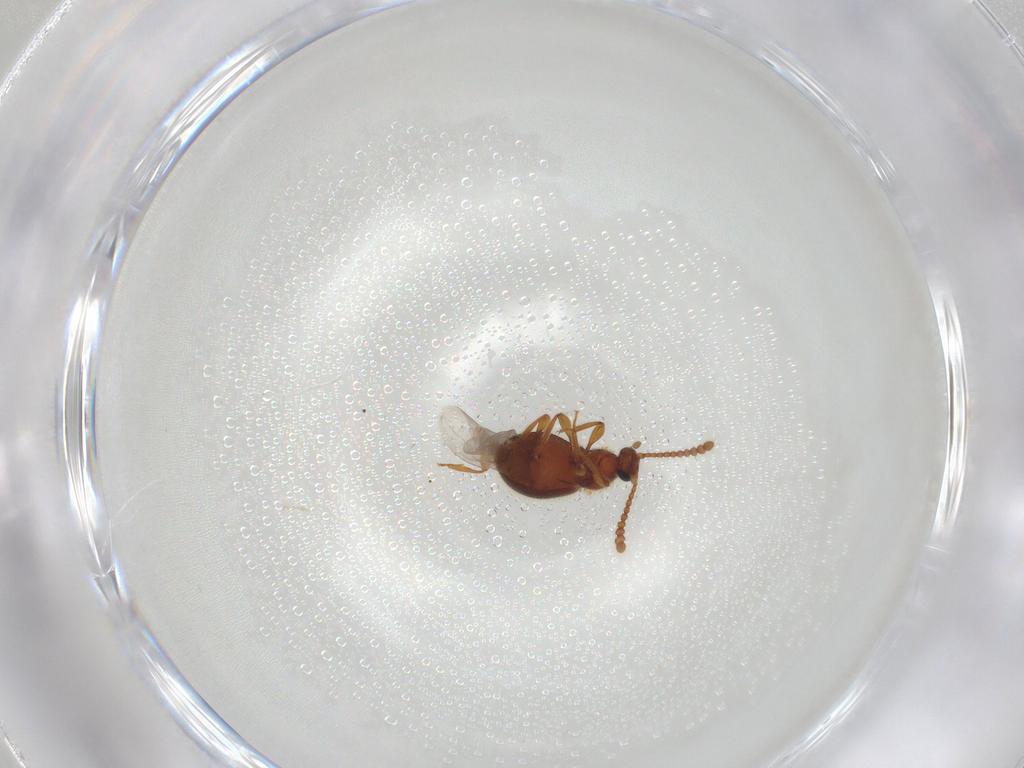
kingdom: Animalia
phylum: Arthropoda
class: Insecta
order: Coleoptera
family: Staphylinidae
